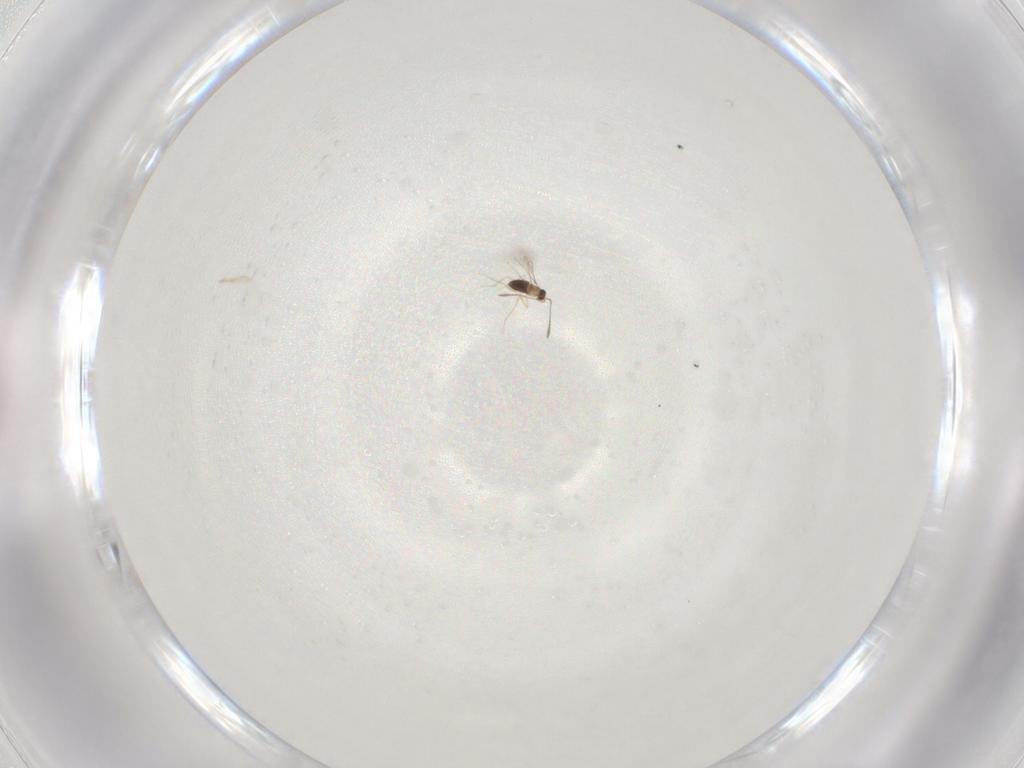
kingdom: Animalia
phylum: Arthropoda
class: Insecta
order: Hymenoptera
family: Mymaridae
